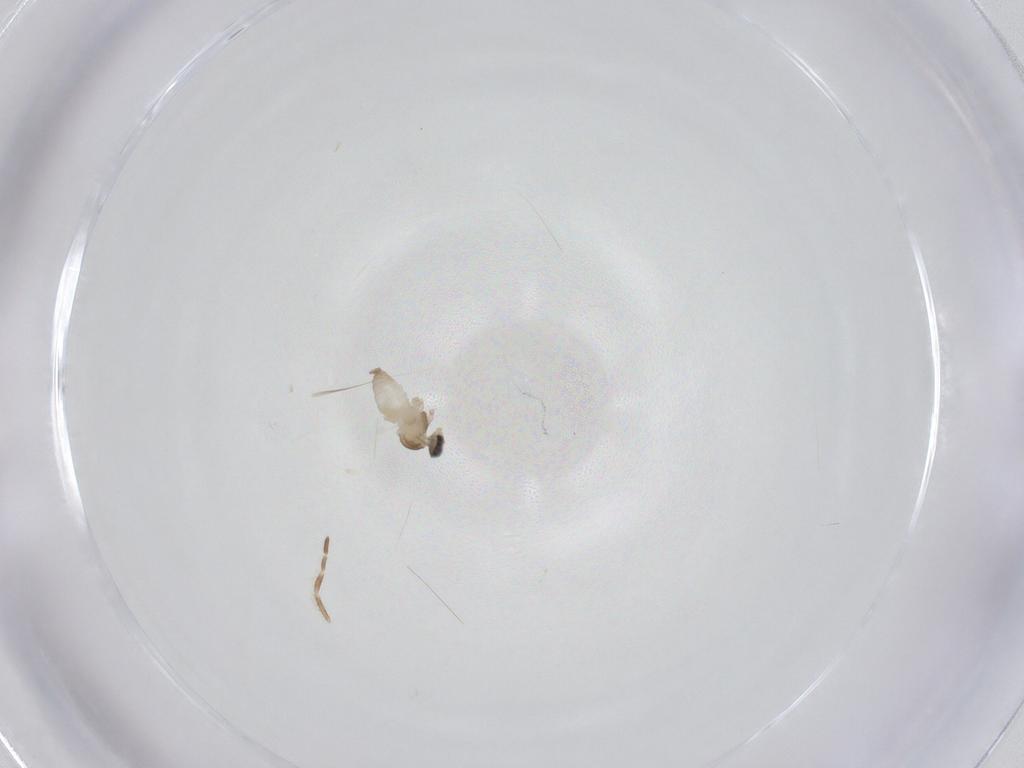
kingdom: Animalia
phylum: Arthropoda
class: Insecta
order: Diptera
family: Cecidomyiidae
